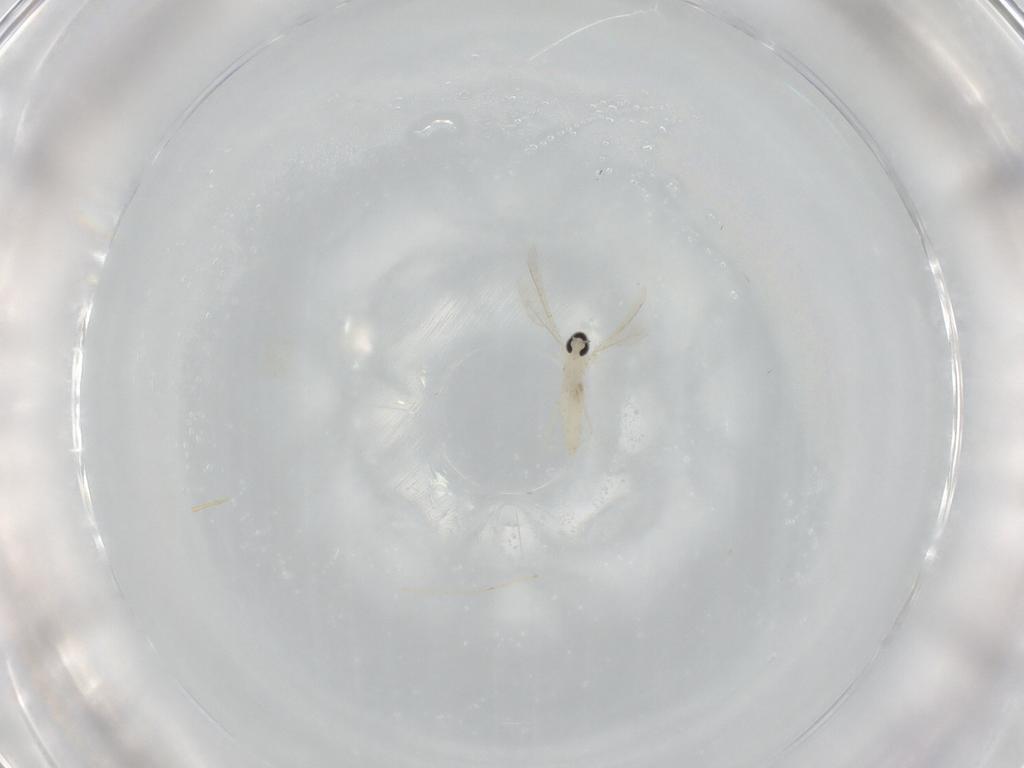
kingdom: Animalia
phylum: Arthropoda
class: Insecta
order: Diptera
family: Cecidomyiidae
